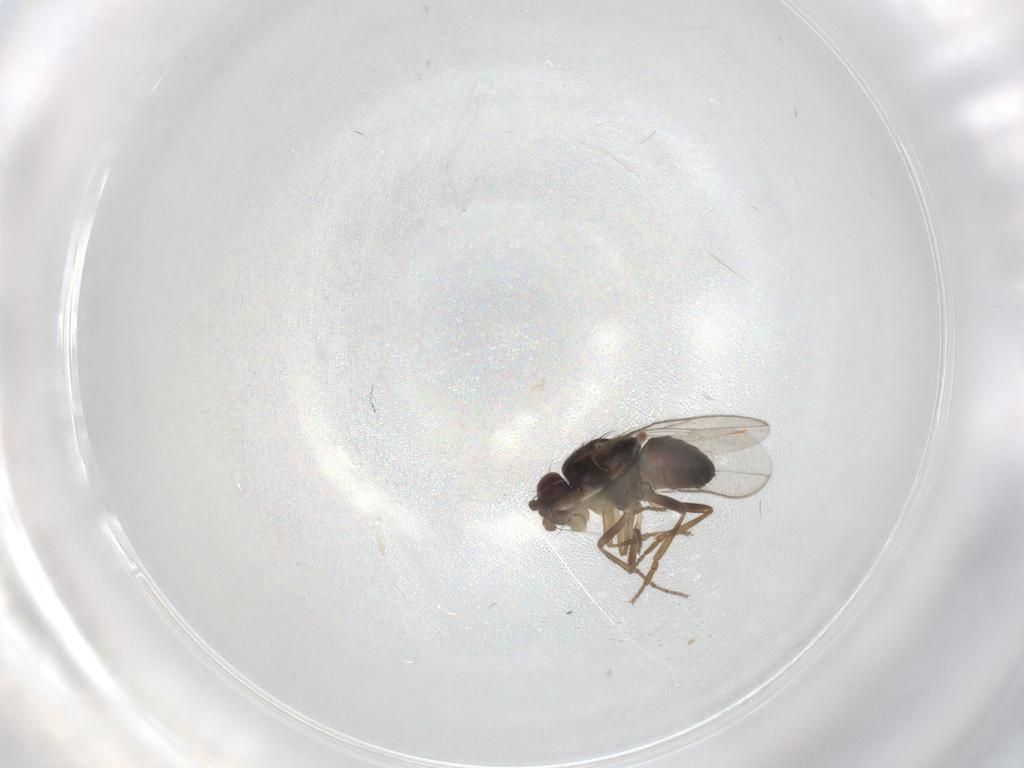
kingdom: Animalia
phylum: Arthropoda
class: Insecta
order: Diptera
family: Sphaeroceridae
